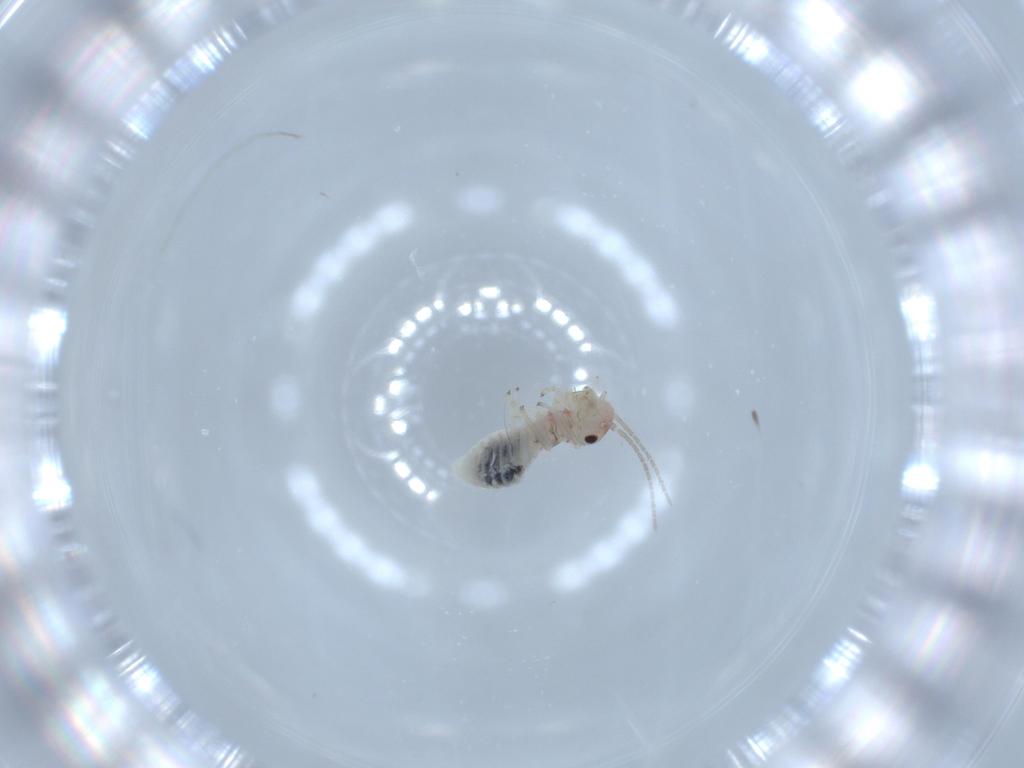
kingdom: Animalia
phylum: Arthropoda
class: Insecta
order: Psocodea
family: Amphipsocidae
